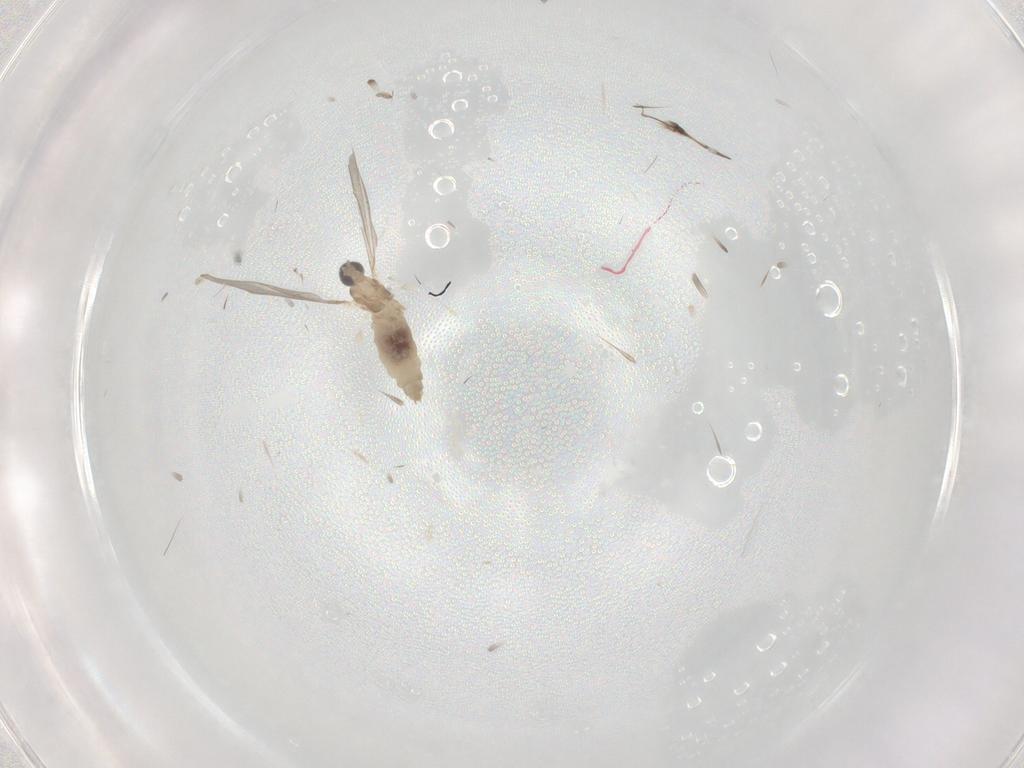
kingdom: Animalia
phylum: Arthropoda
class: Insecta
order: Diptera
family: Cecidomyiidae
